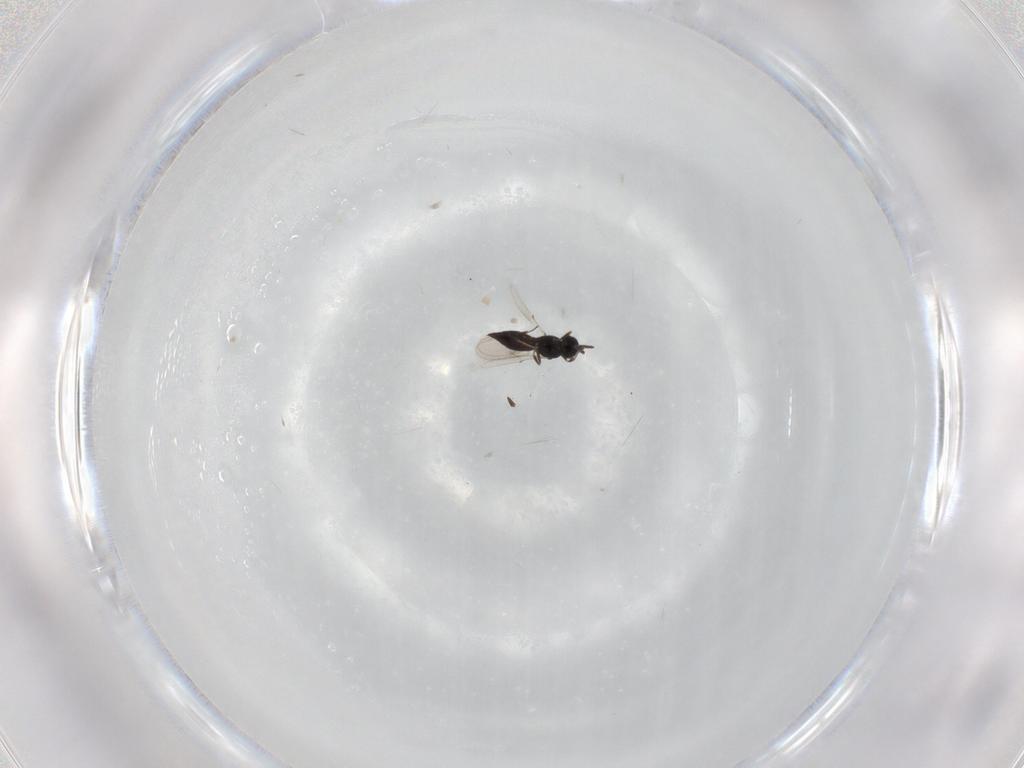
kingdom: Animalia
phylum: Arthropoda
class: Insecta
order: Hymenoptera
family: Scelionidae
